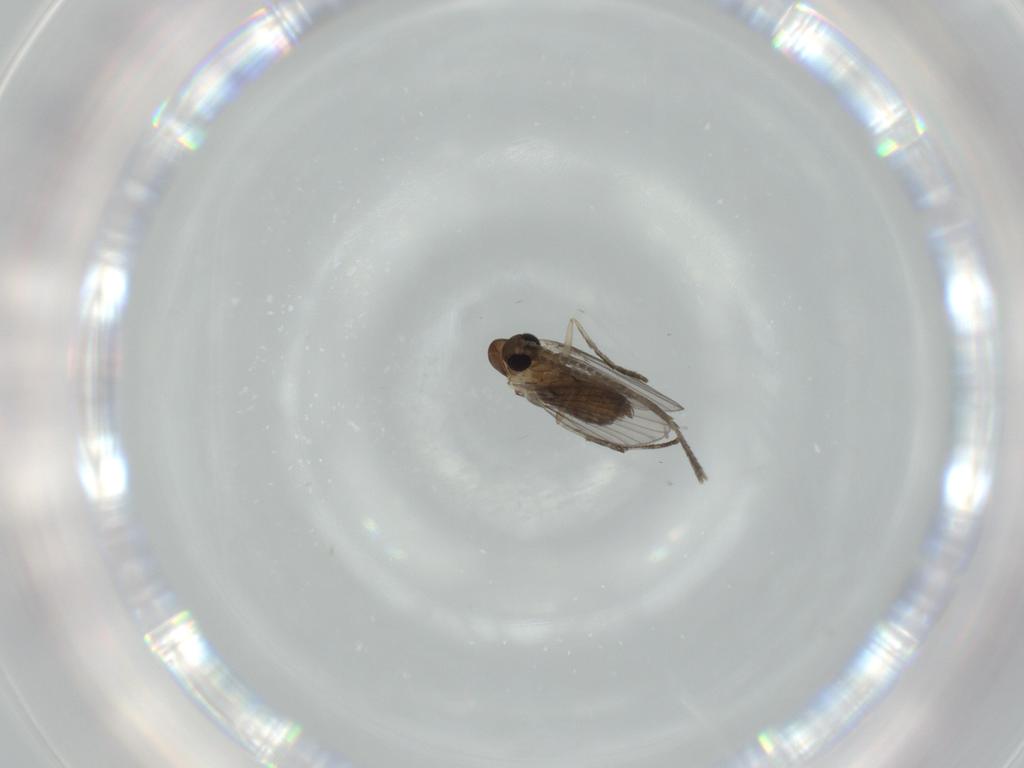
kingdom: Animalia
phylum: Arthropoda
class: Insecta
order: Diptera
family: Psychodidae
